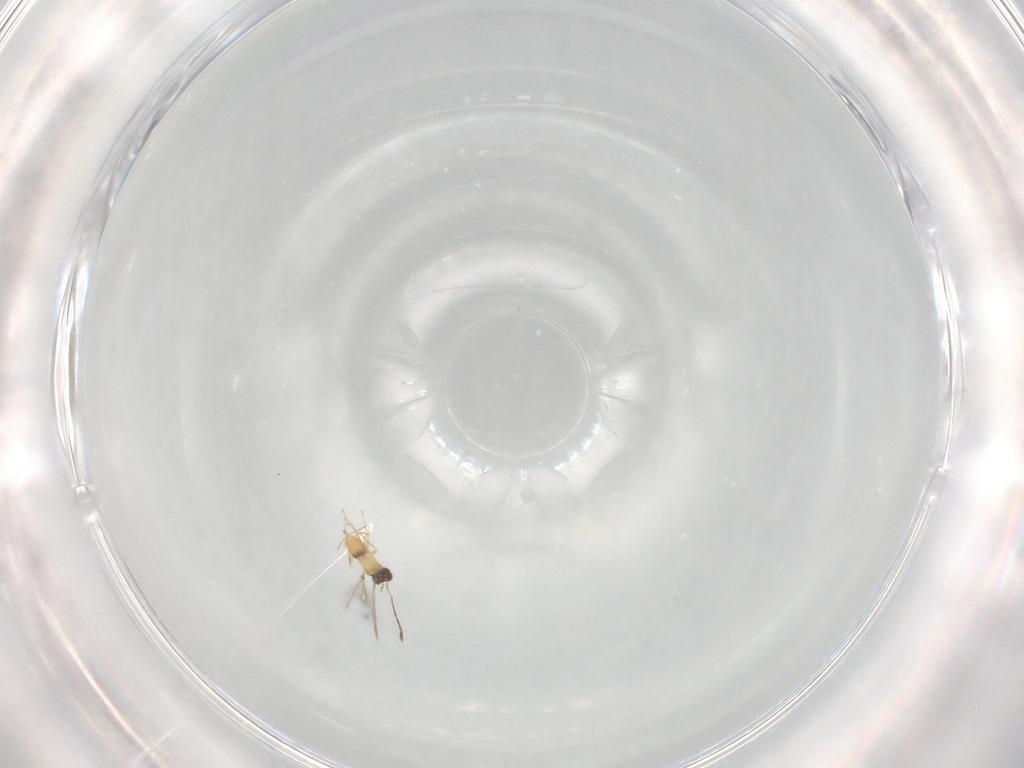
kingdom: Animalia
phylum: Arthropoda
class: Insecta
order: Hymenoptera
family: Mymaridae
